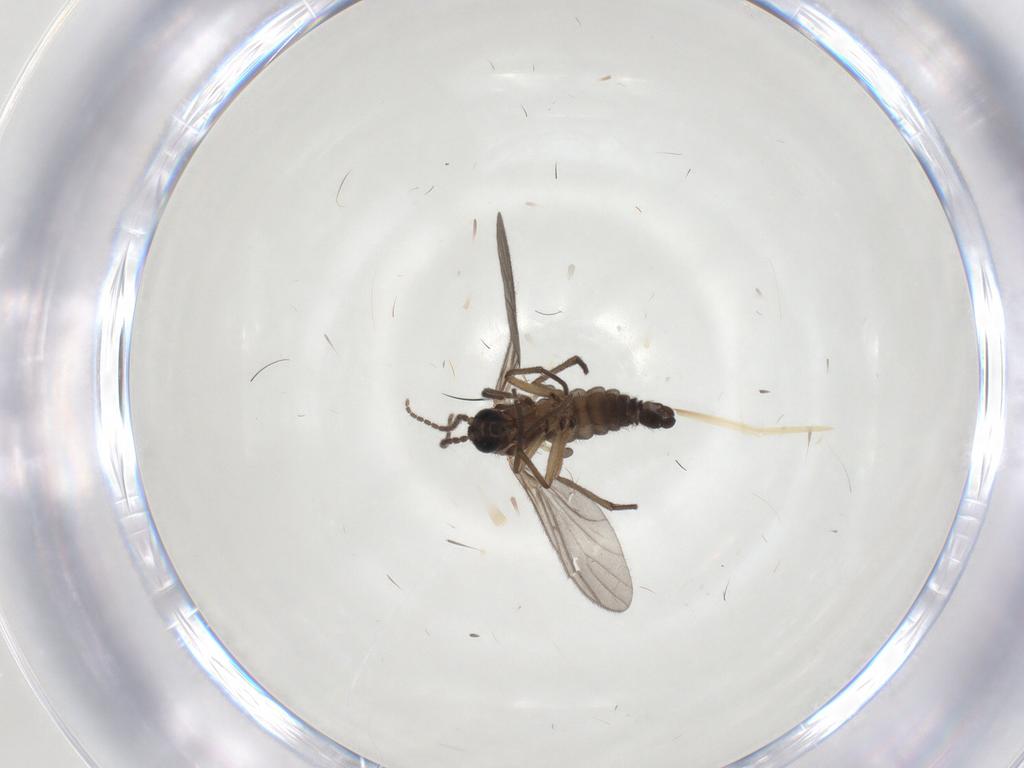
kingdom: Animalia
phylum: Arthropoda
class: Insecta
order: Diptera
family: Sciaridae
